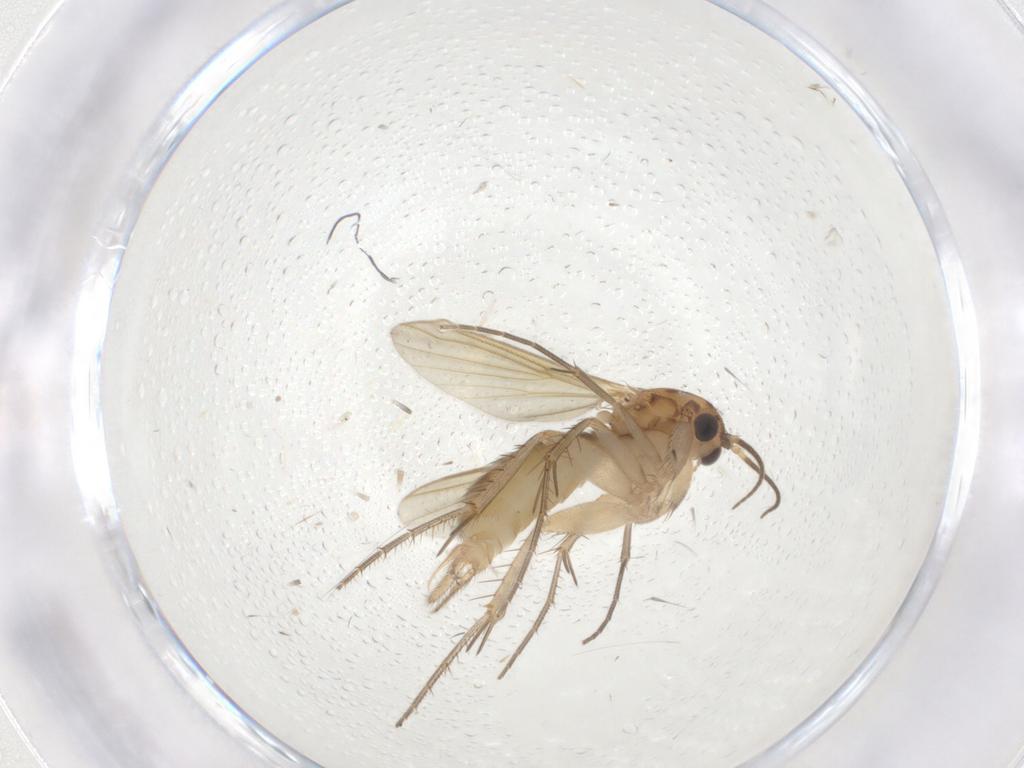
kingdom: Animalia
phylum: Arthropoda
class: Insecta
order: Diptera
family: Mycetophilidae
